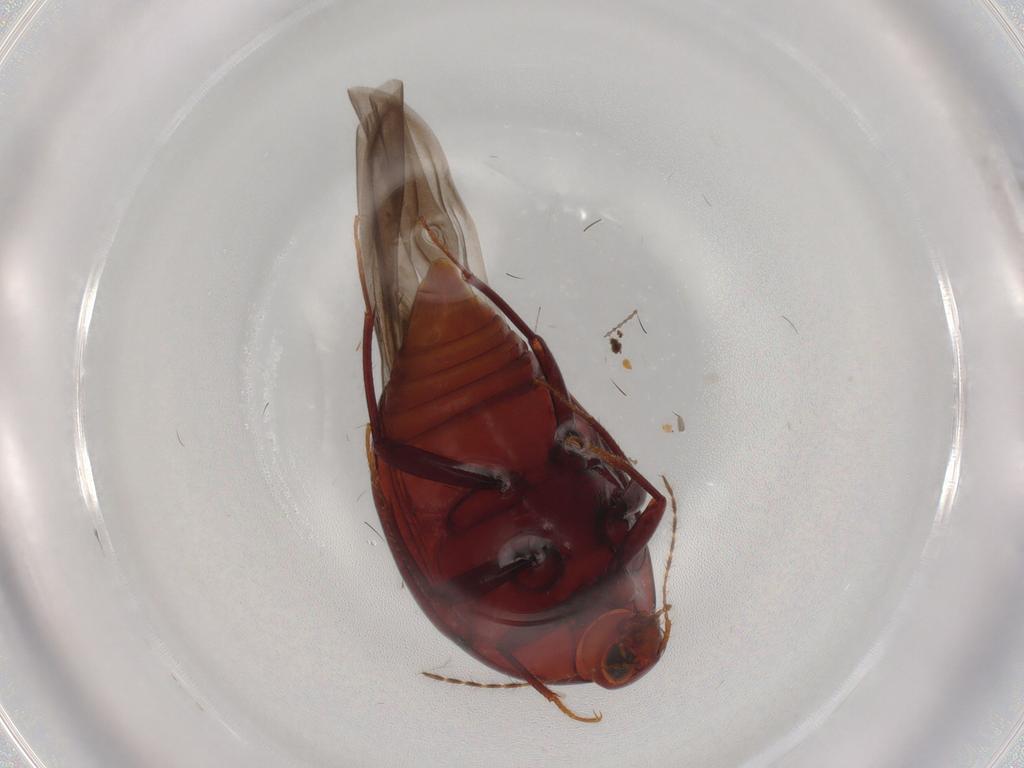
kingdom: Animalia
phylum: Arthropoda
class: Insecta
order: Coleoptera
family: Staphylinidae
